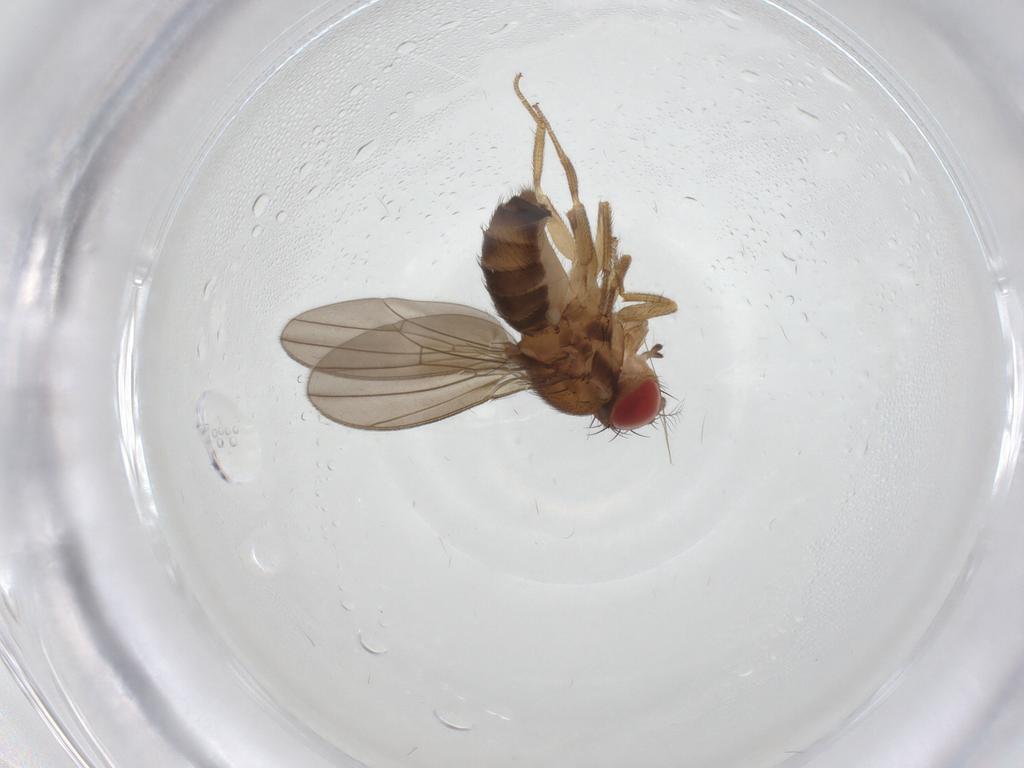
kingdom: Animalia
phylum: Arthropoda
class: Insecta
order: Diptera
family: Drosophilidae
